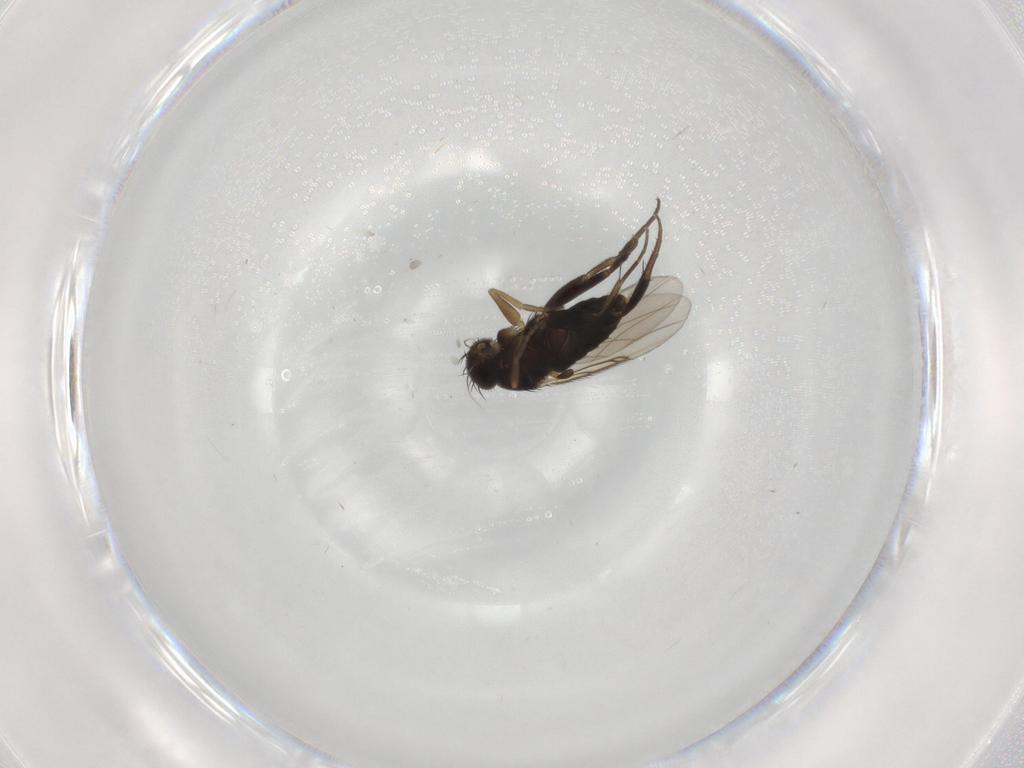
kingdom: Animalia
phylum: Arthropoda
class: Insecta
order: Diptera
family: Phoridae
